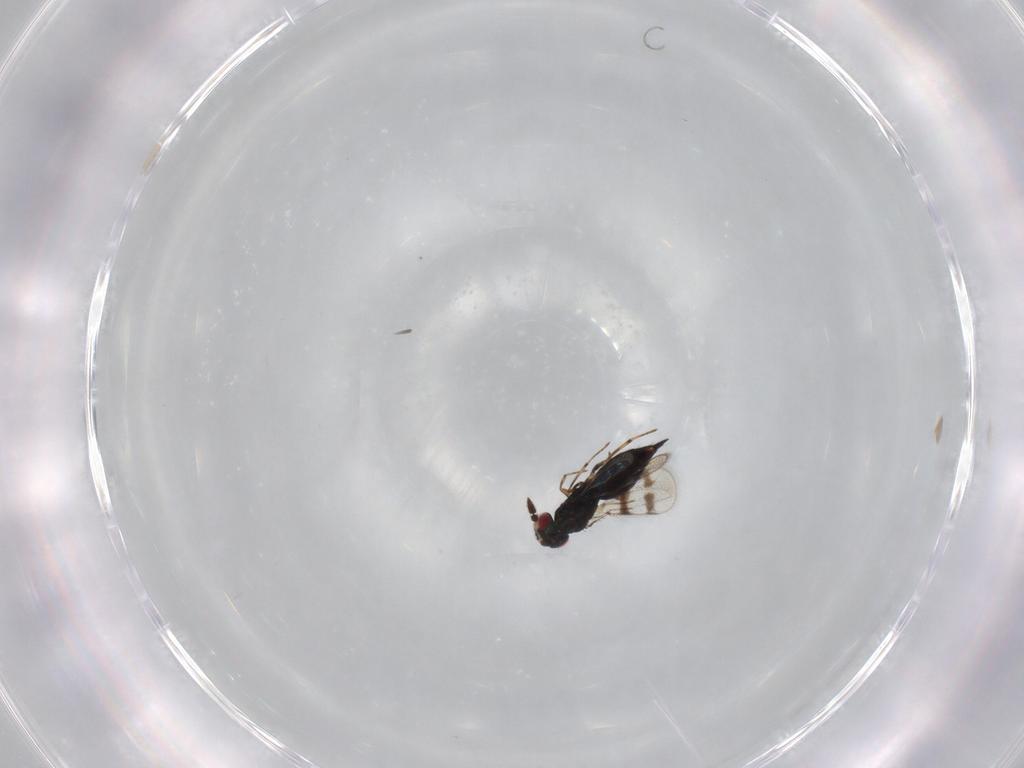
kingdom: Animalia
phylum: Arthropoda
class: Insecta
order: Hymenoptera
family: Eulophidae
